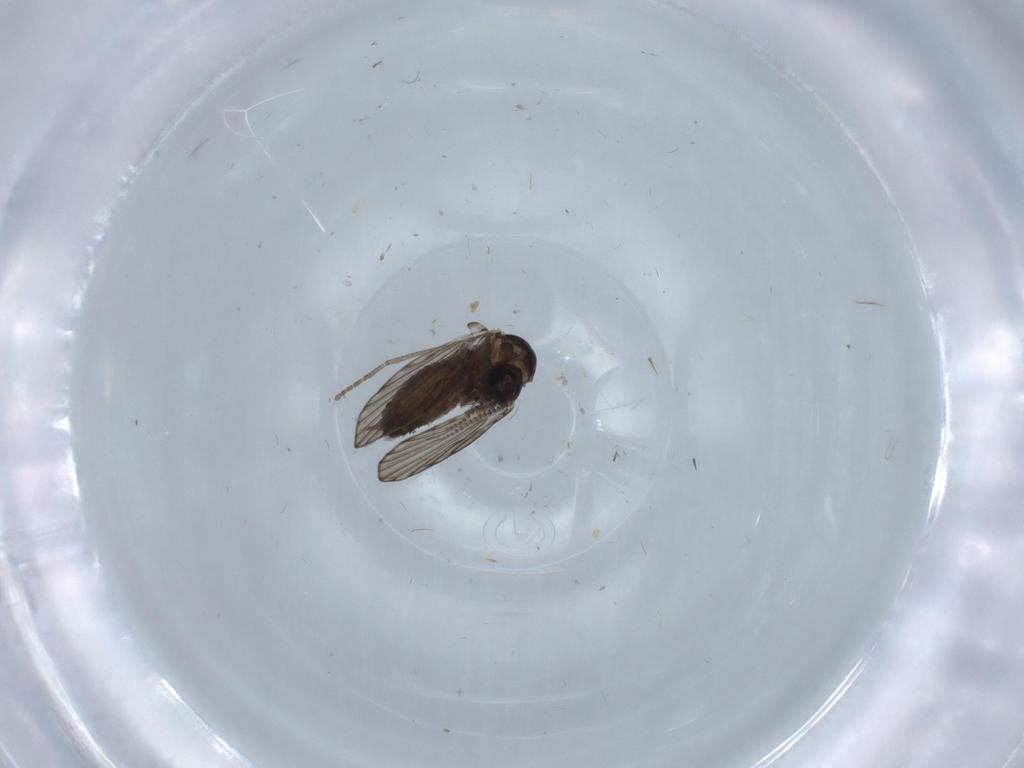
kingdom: Animalia
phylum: Arthropoda
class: Insecta
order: Diptera
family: Psychodidae
